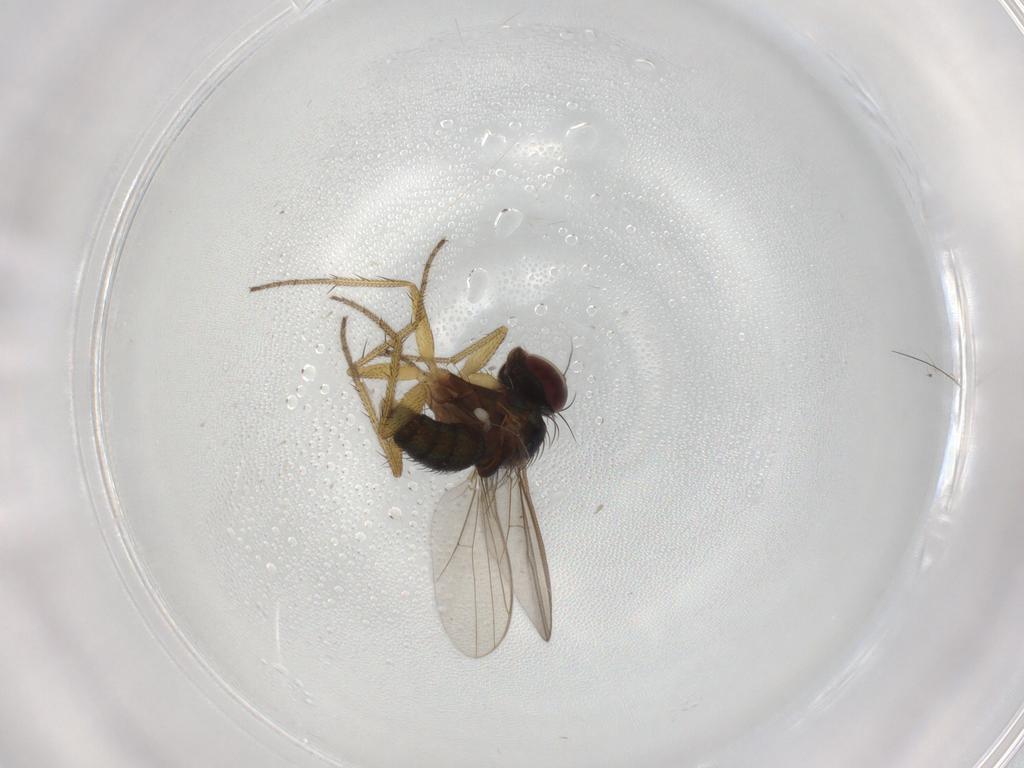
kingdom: Animalia
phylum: Arthropoda
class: Insecta
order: Diptera
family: Dolichopodidae
